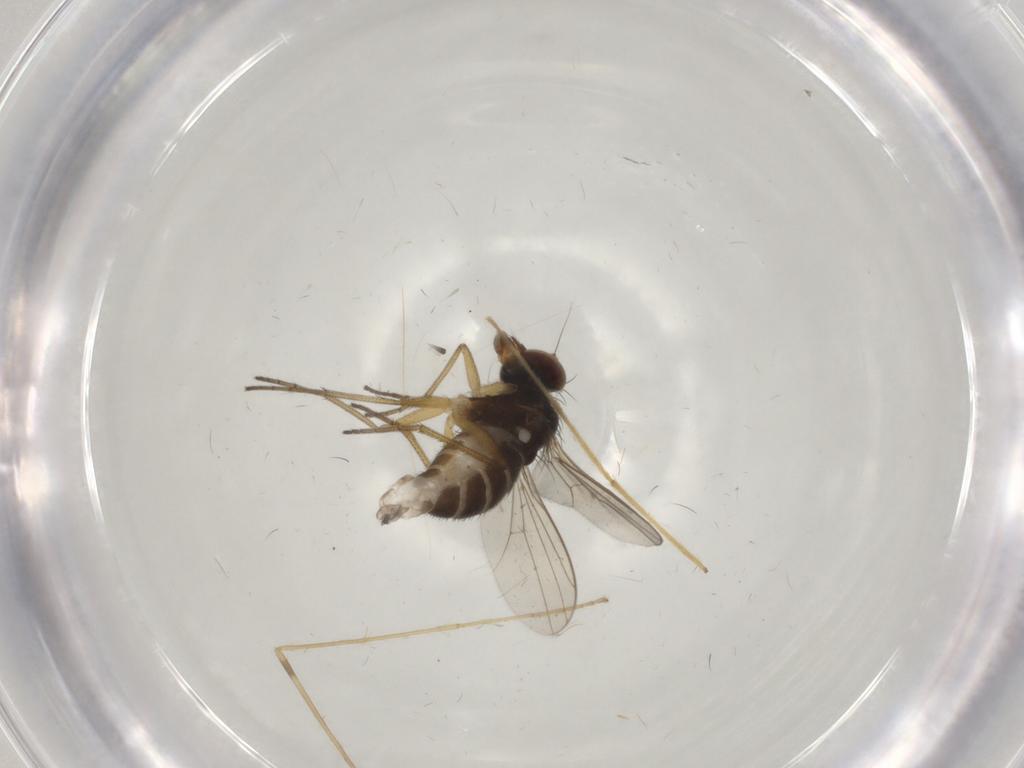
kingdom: Animalia
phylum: Arthropoda
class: Insecta
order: Diptera
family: Dolichopodidae
